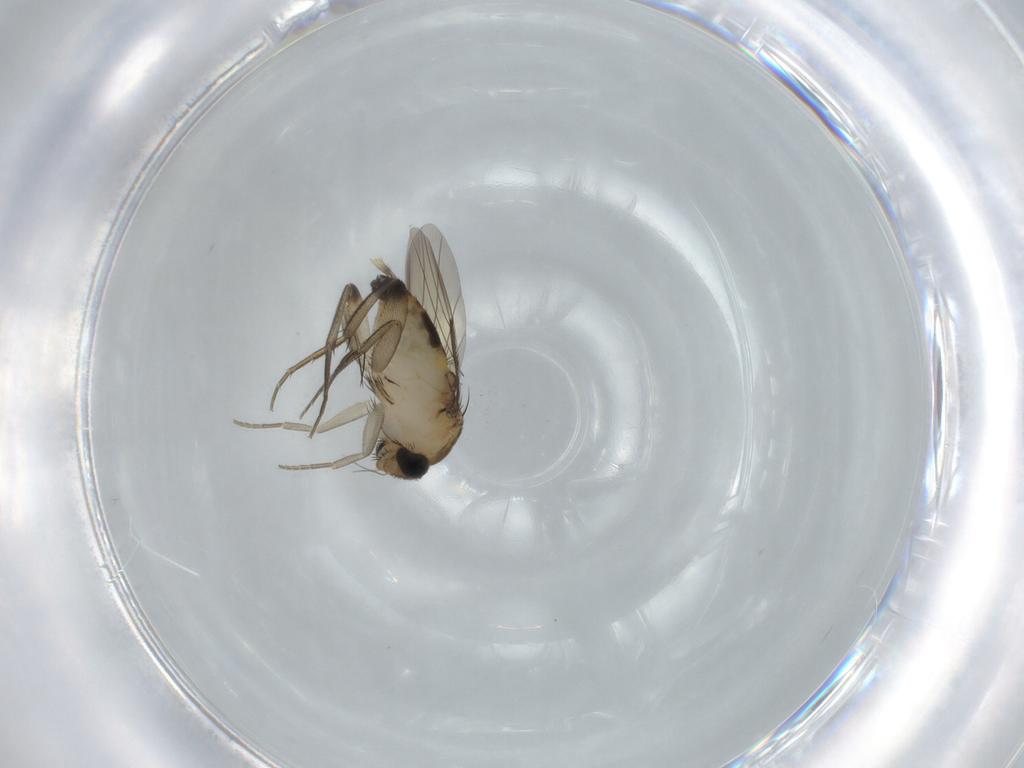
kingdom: Animalia
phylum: Arthropoda
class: Insecta
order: Diptera
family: Phoridae
